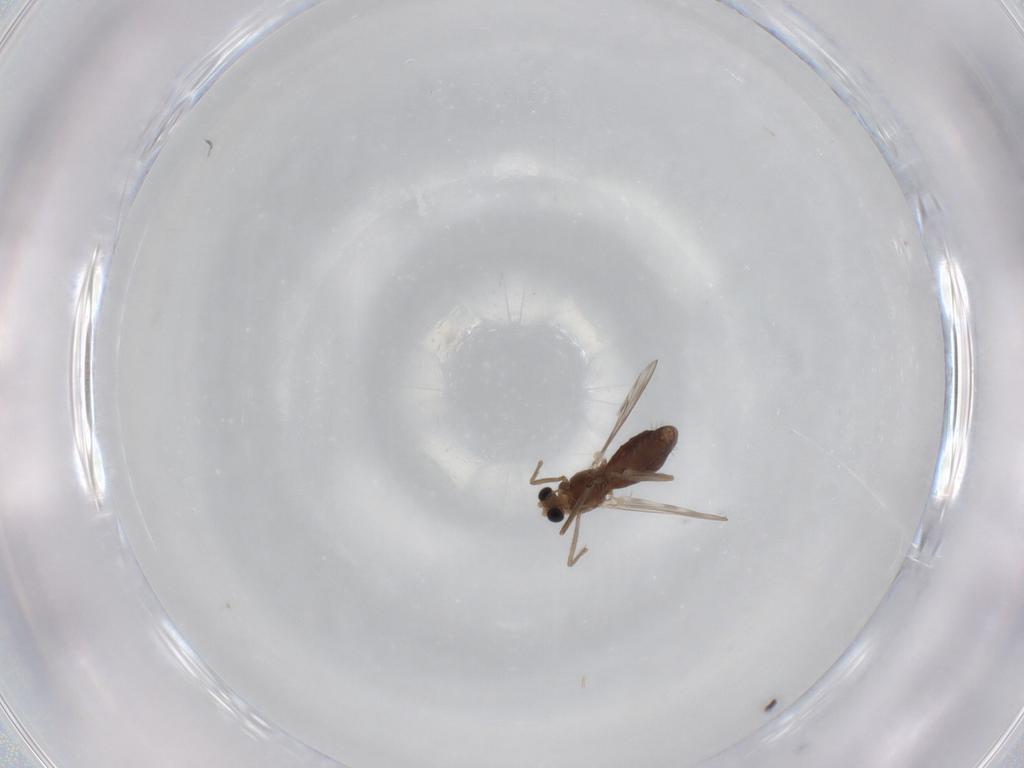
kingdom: Animalia
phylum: Arthropoda
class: Insecta
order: Diptera
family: Chironomidae
